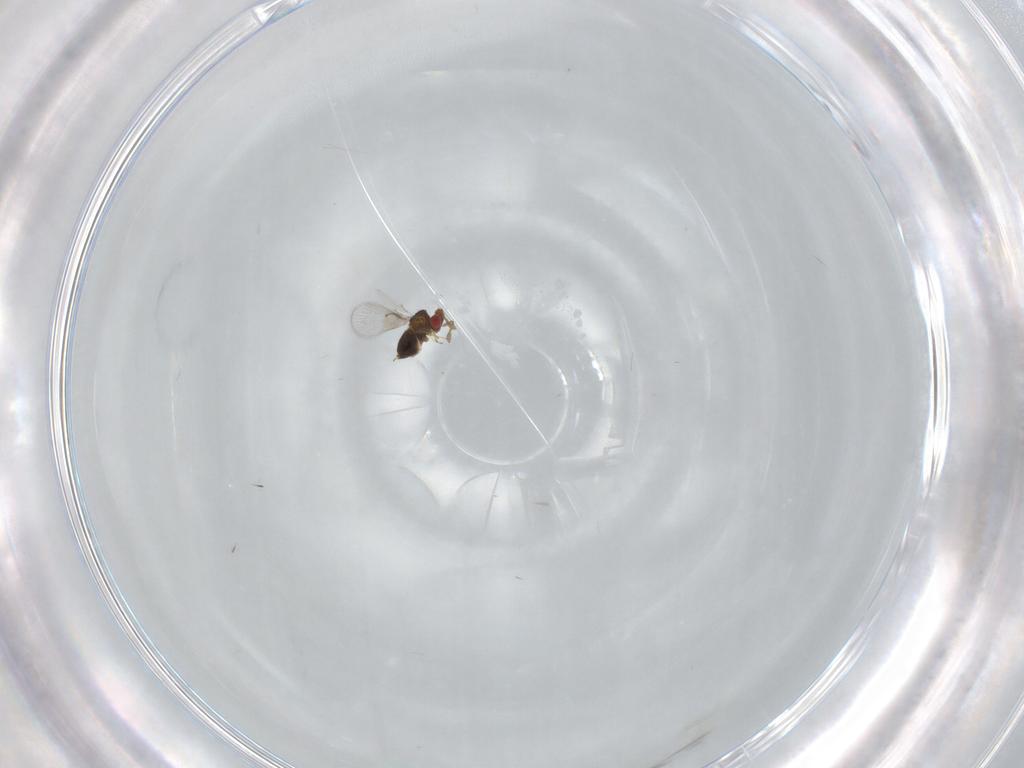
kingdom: Animalia
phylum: Arthropoda
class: Insecta
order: Hymenoptera
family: Trichogrammatidae
